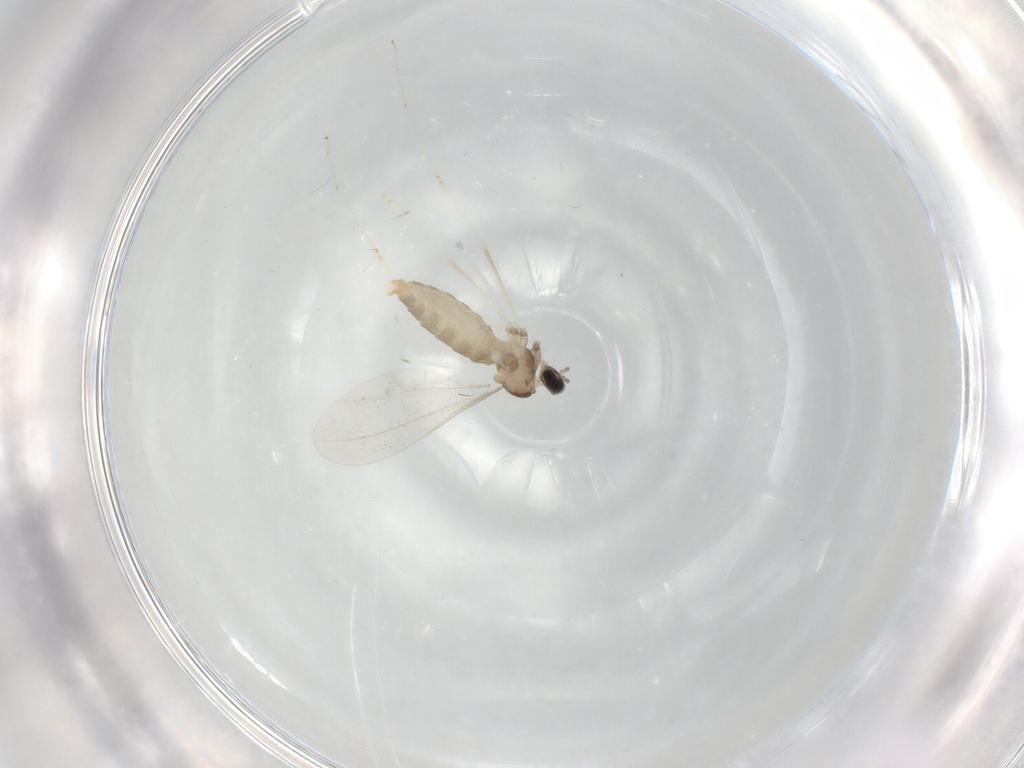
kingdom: Animalia
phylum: Arthropoda
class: Insecta
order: Diptera
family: Cecidomyiidae
